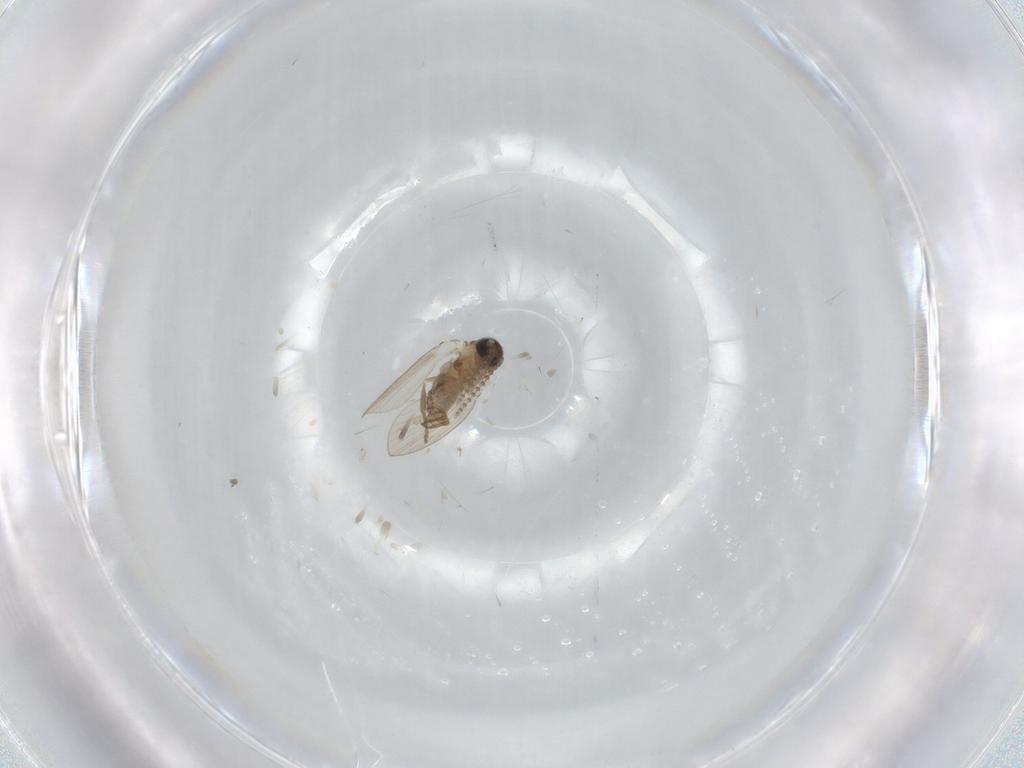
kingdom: Animalia
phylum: Arthropoda
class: Insecta
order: Diptera
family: Psychodidae
